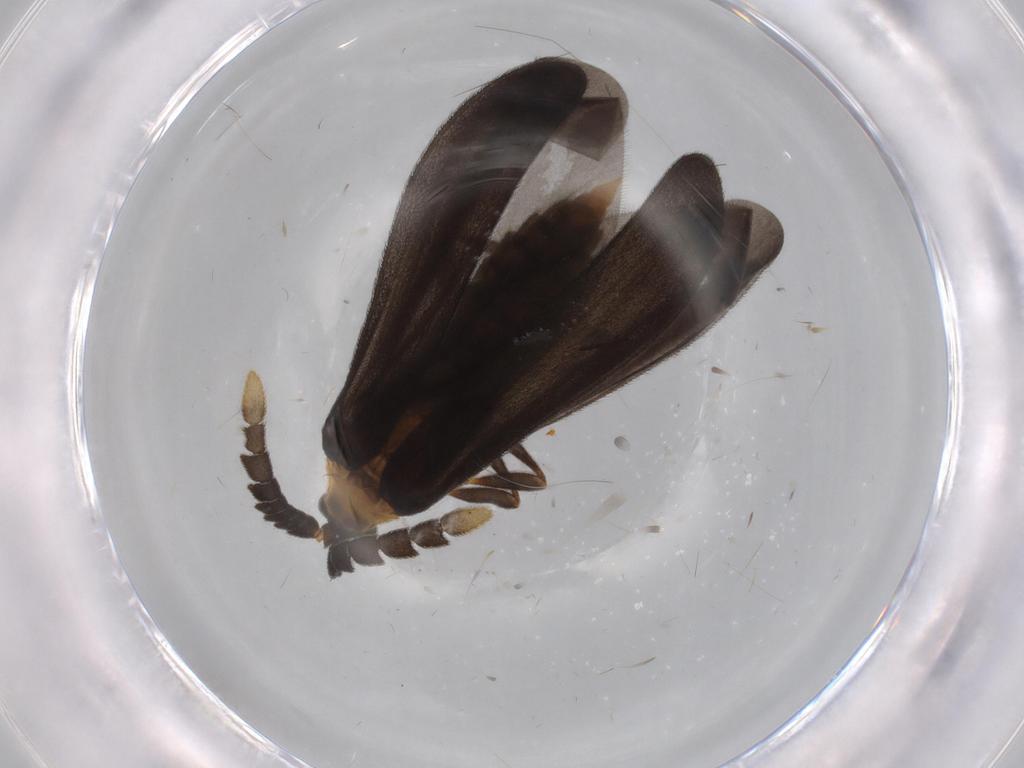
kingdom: Animalia
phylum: Arthropoda
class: Insecta
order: Coleoptera
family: Lycidae
